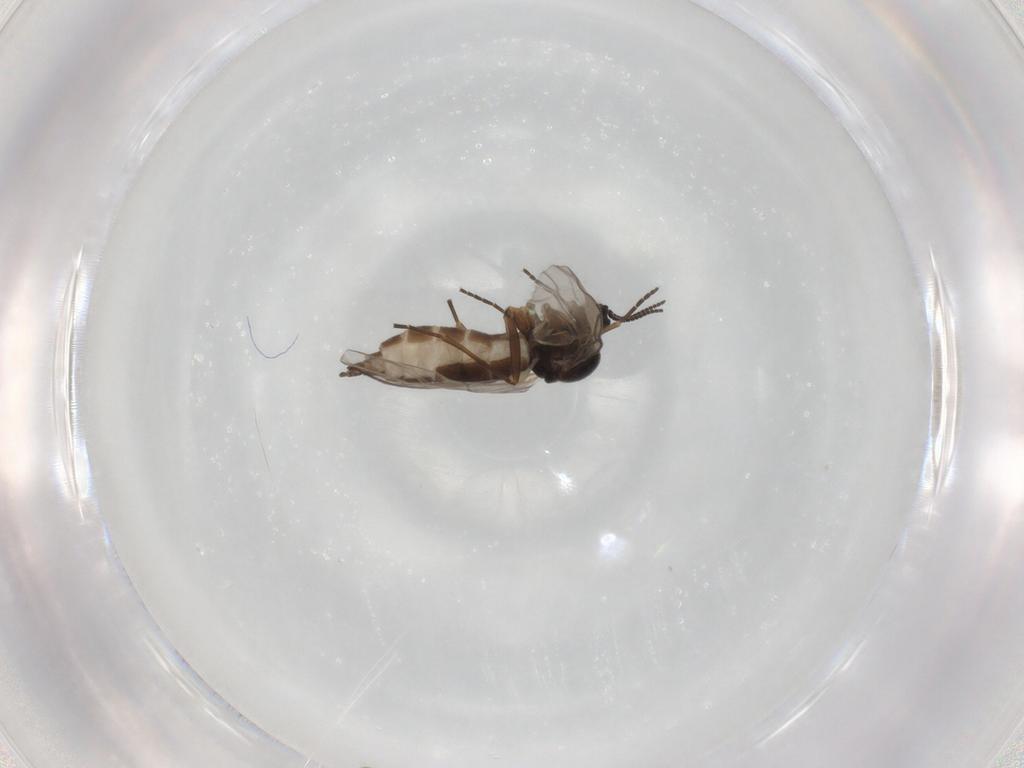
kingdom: Animalia
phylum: Arthropoda
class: Insecta
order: Diptera
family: Sciaridae
